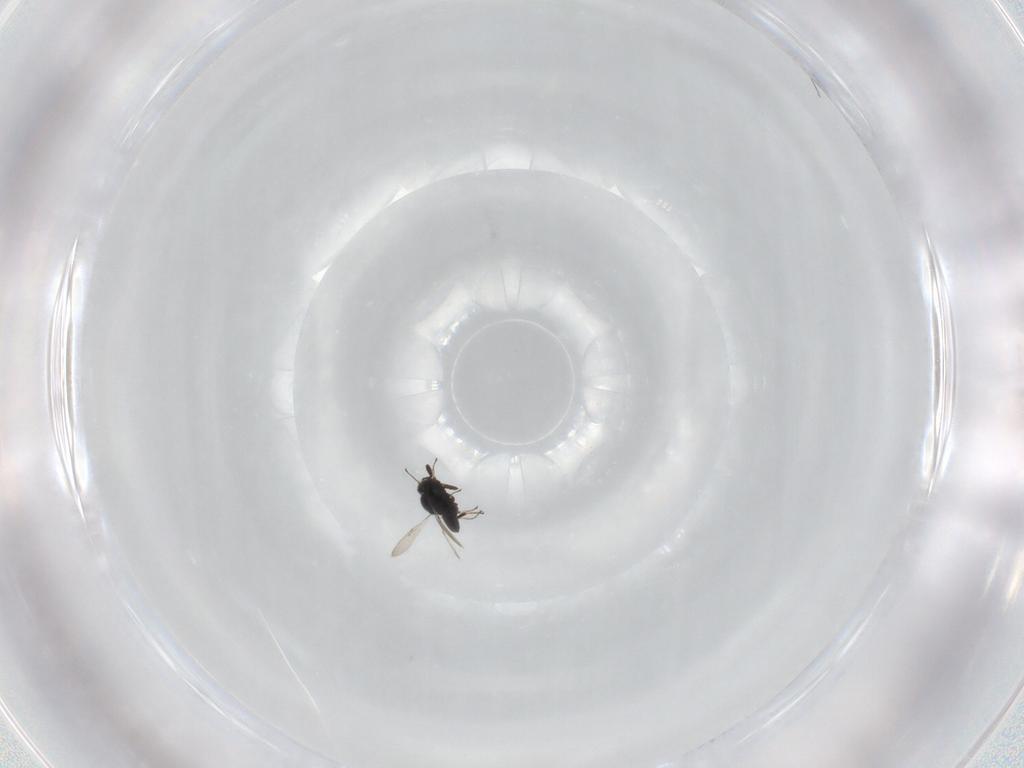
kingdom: Animalia
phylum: Arthropoda
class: Insecta
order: Hymenoptera
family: Scelionidae
